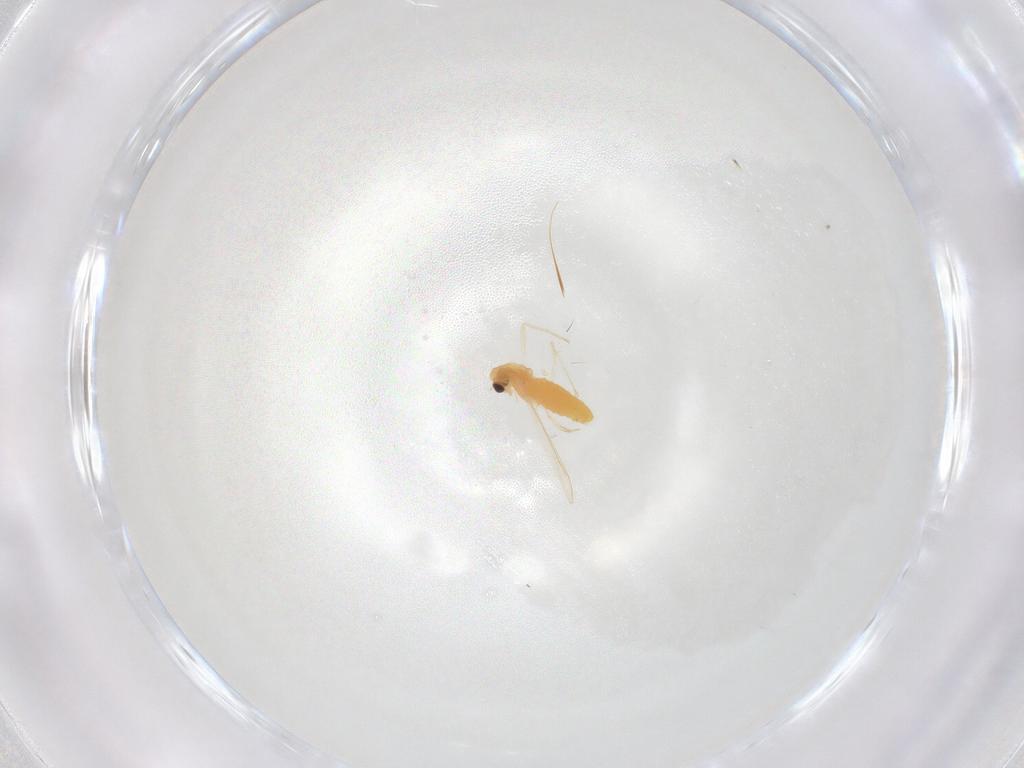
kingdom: Animalia
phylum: Arthropoda
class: Insecta
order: Diptera
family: Chironomidae
